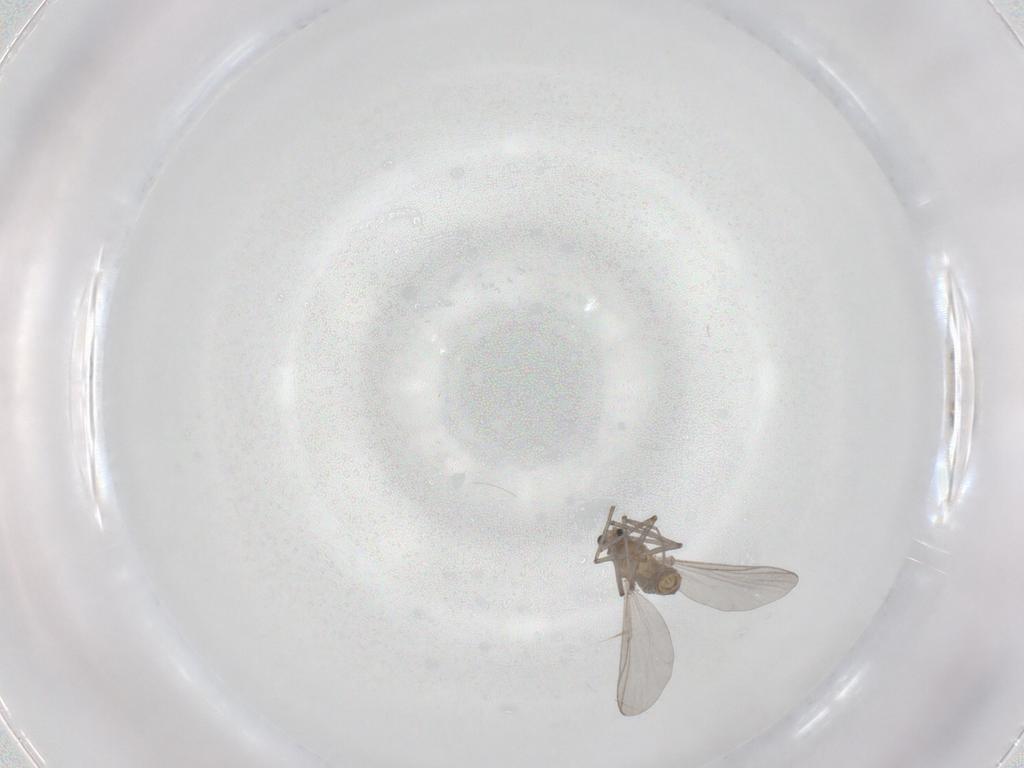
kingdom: Animalia
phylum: Arthropoda
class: Insecta
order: Diptera
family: Chironomidae
